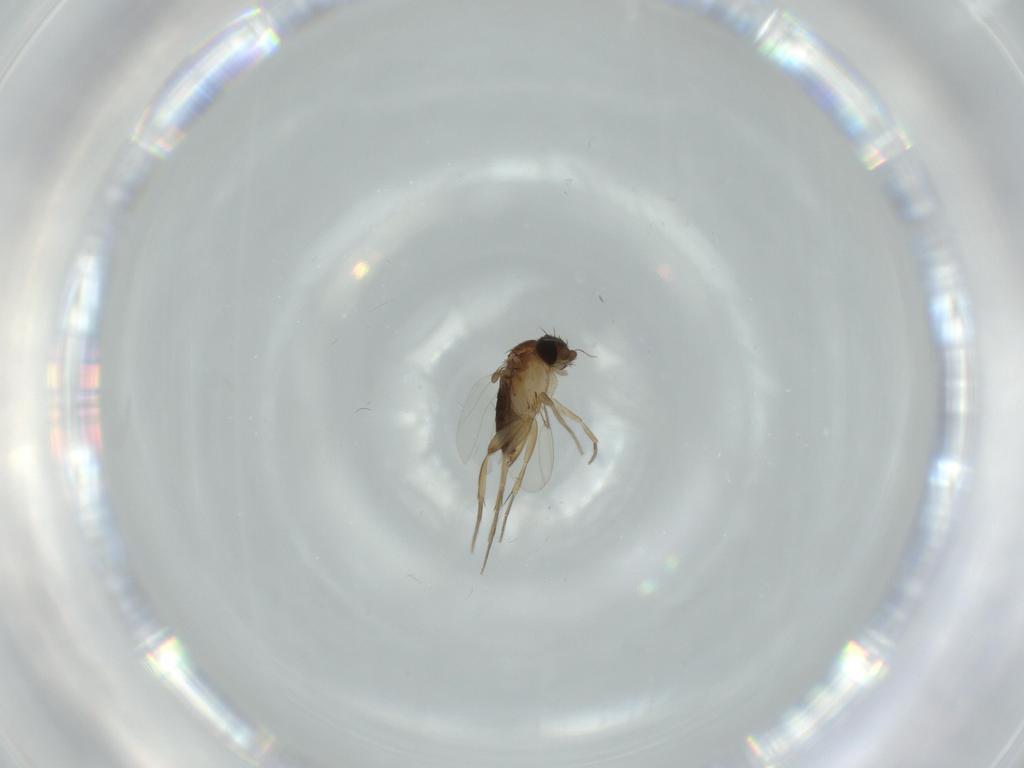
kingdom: Animalia
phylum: Arthropoda
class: Insecta
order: Diptera
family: Phoridae
